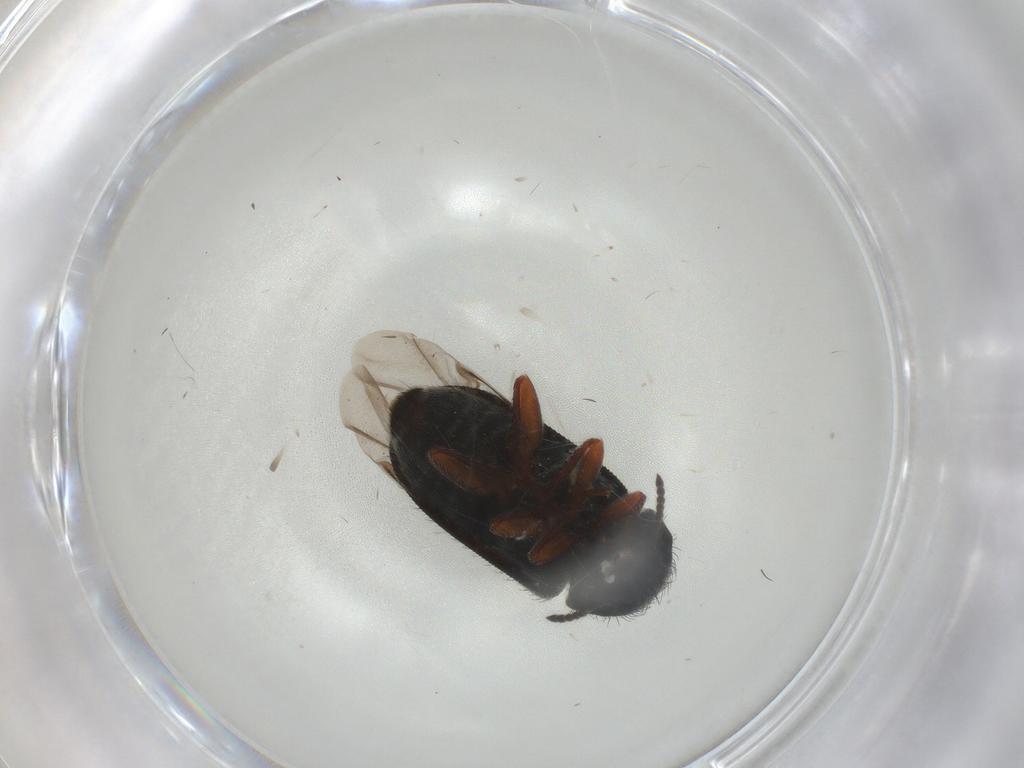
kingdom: Animalia
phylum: Arthropoda
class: Insecta
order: Coleoptera
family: Melyridae
